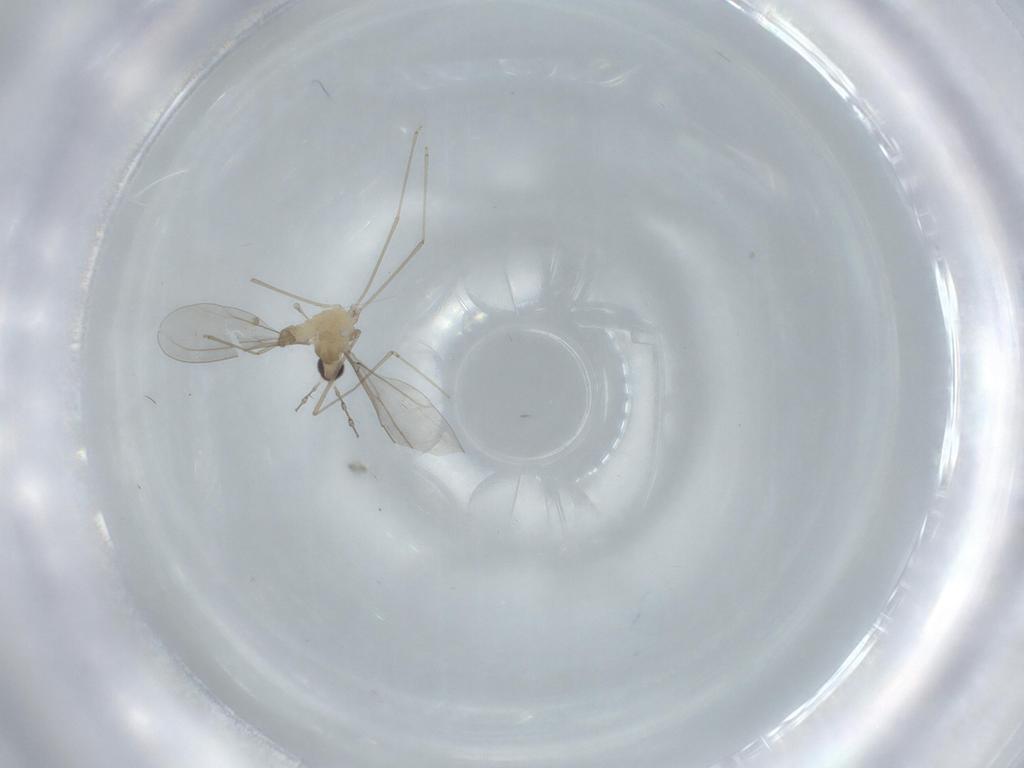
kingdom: Animalia
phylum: Arthropoda
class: Insecta
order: Diptera
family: Cecidomyiidae
